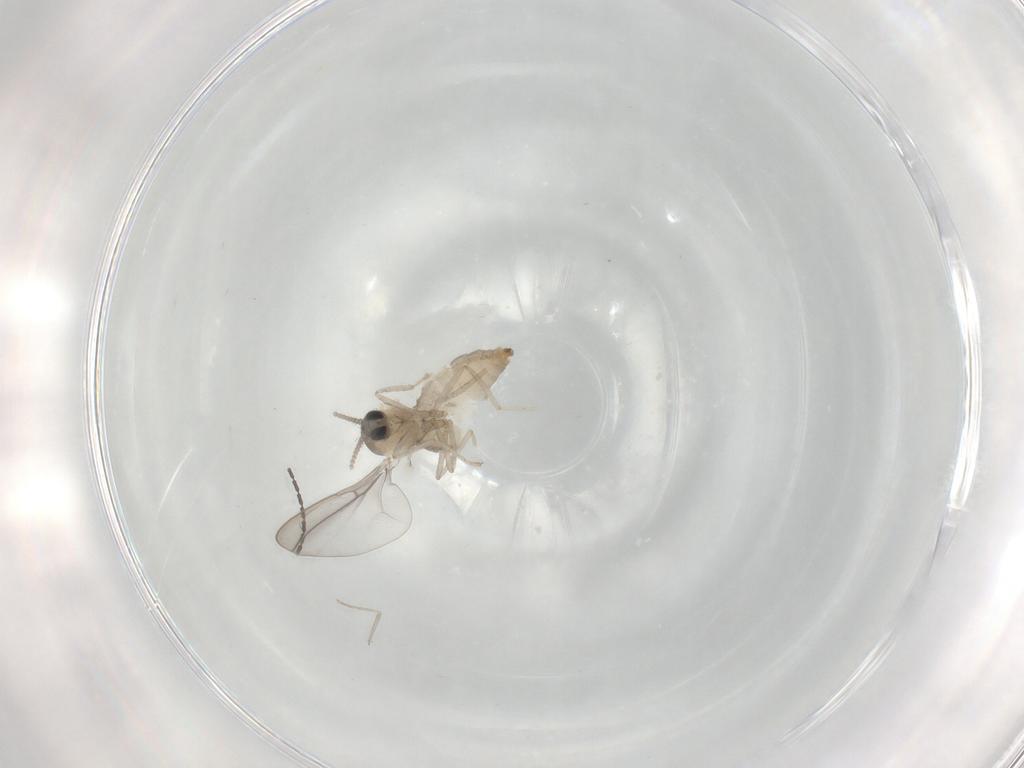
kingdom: Animalia
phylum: Arthropoda
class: Insecta
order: Diptera
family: Cecidomyiidae
